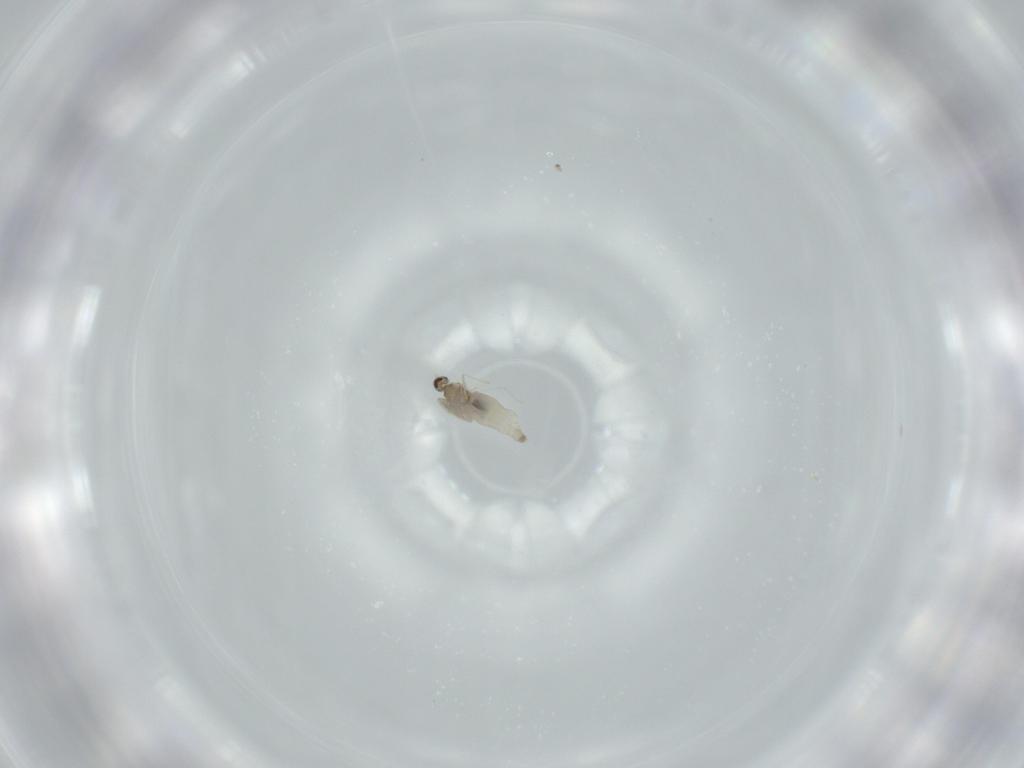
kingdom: Animalia
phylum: Arthropoda
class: Insecta
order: Diptera
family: Cecidomyiidae
